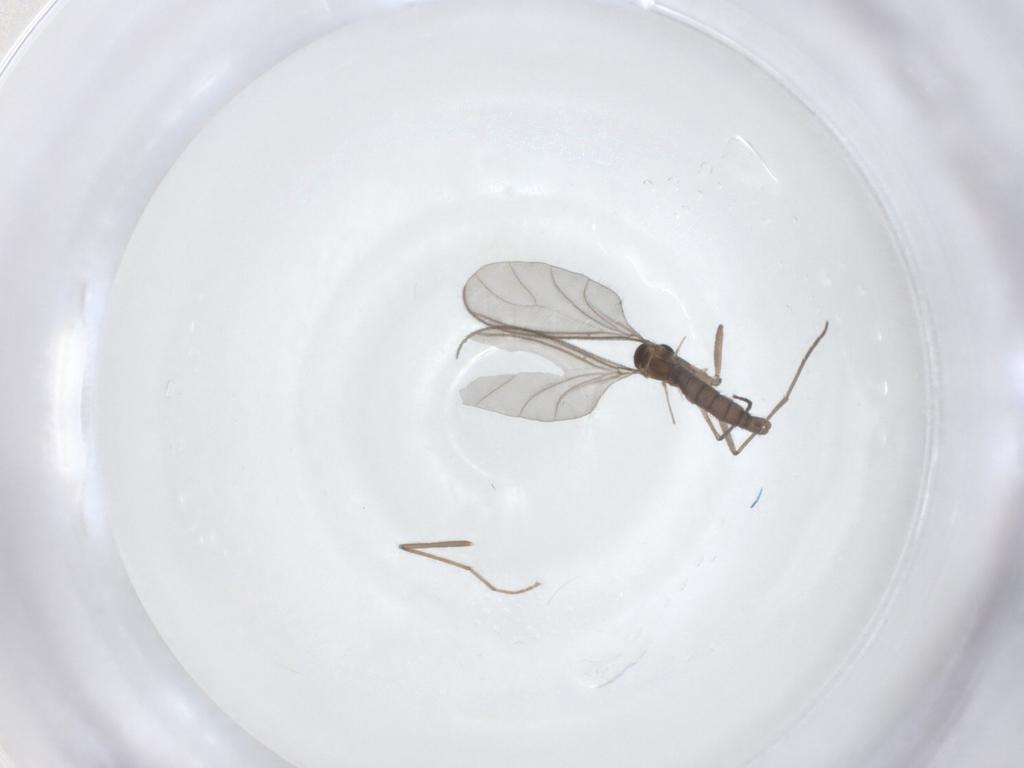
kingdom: Animalia
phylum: Arthropoda
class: Insecta
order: Diptera
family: Sciaridae
